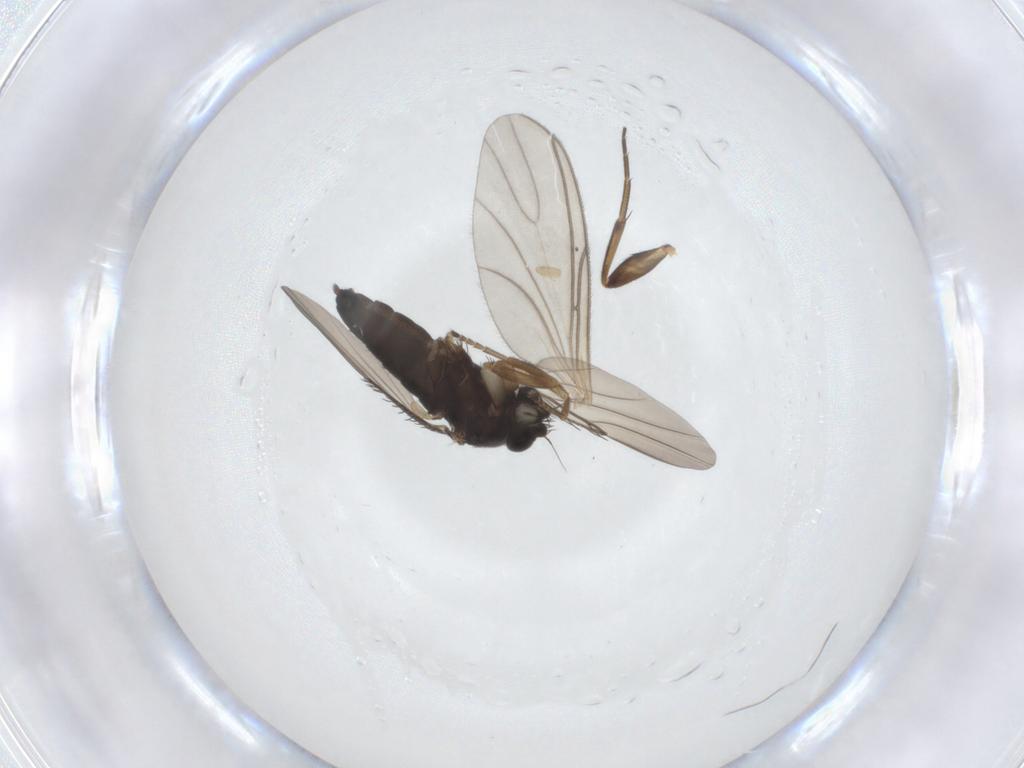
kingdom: Animalia
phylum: Arthropoda
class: Insecta
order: Diptera
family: Phoridae
